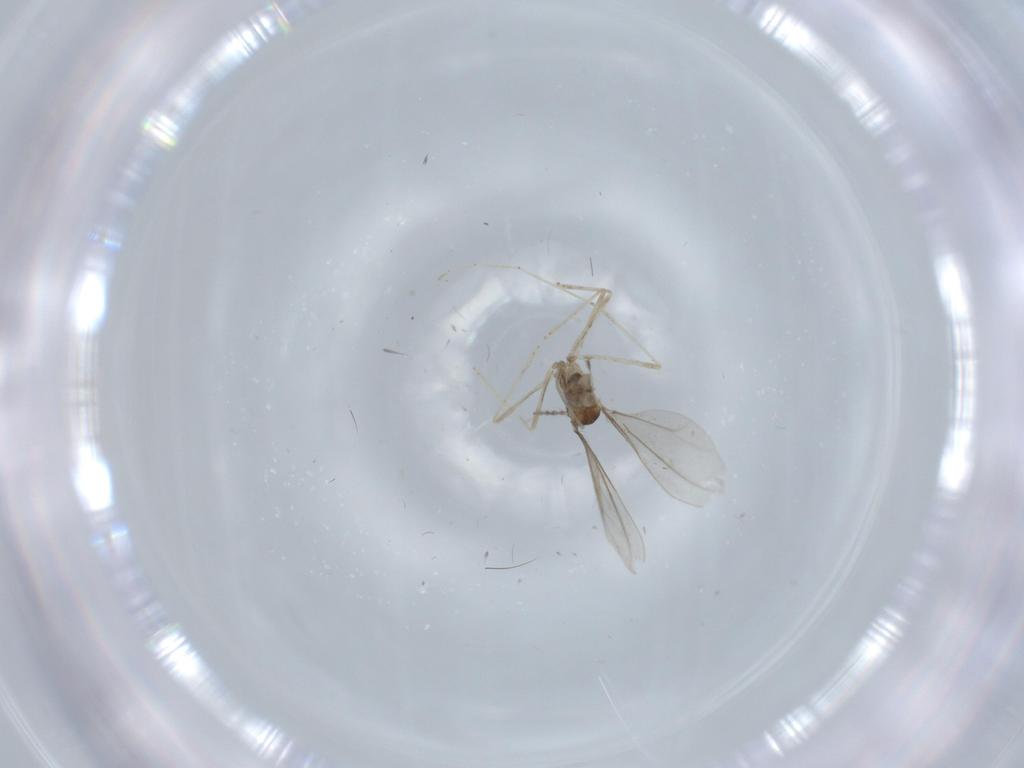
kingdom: Animalia
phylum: Arthropoda
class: Insecta
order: Diptera
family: Cecidomyiidae
